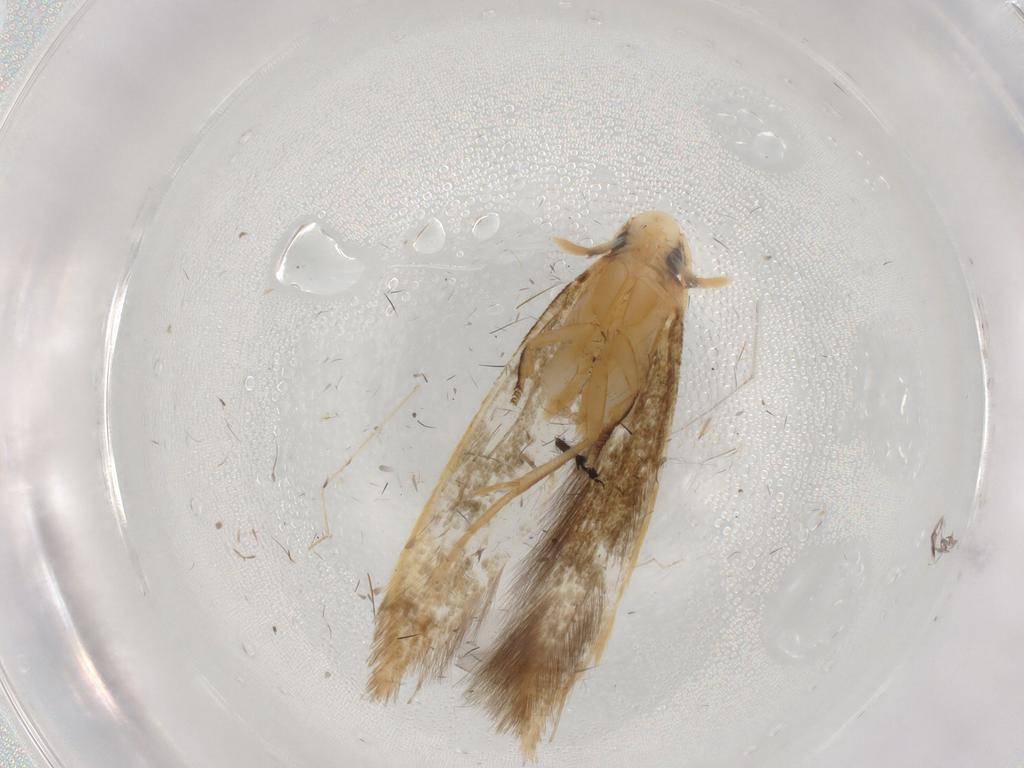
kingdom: Animalia
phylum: Arthropoda
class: Insecta
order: Lepidoptera
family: Tineidae
